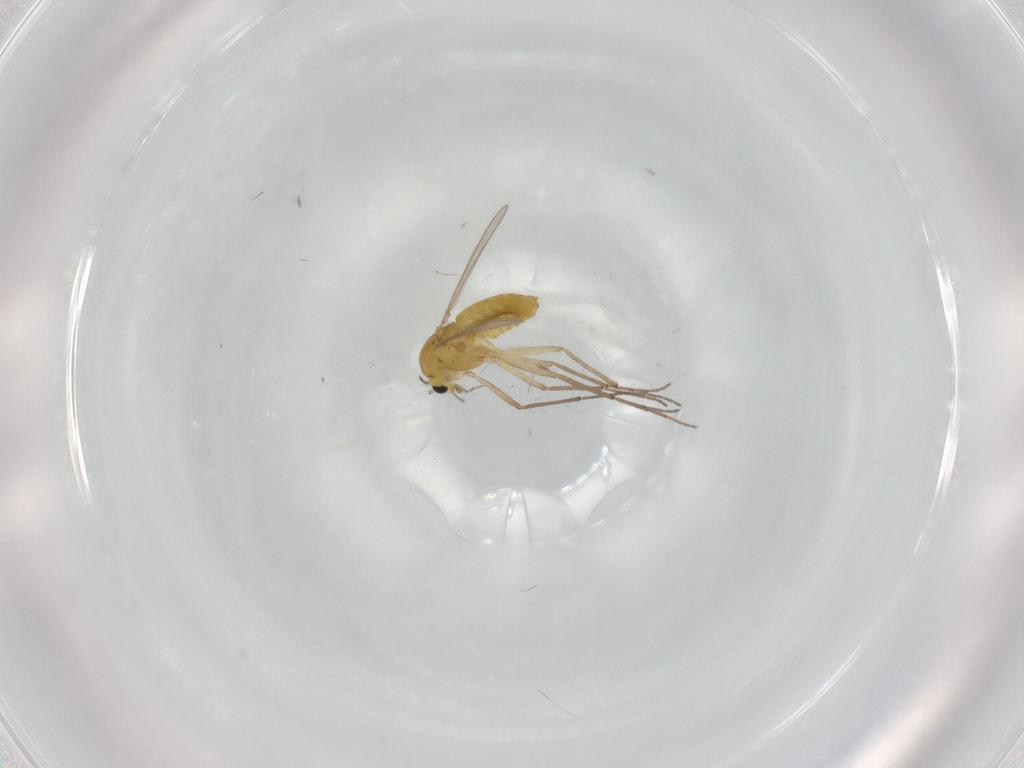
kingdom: Animalia
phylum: Arthropoda
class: Insecta
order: Diptera
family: Chironomidae
